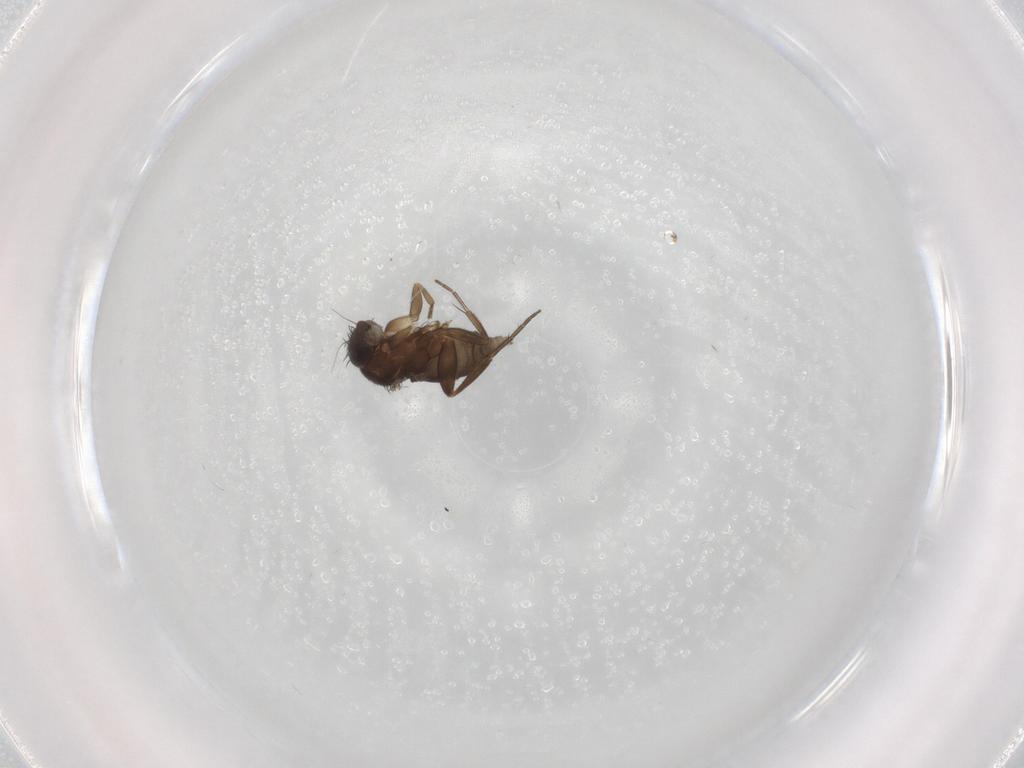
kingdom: Animalia
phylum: Arthropoda
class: Insecta
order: Diptera
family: Phoridae
